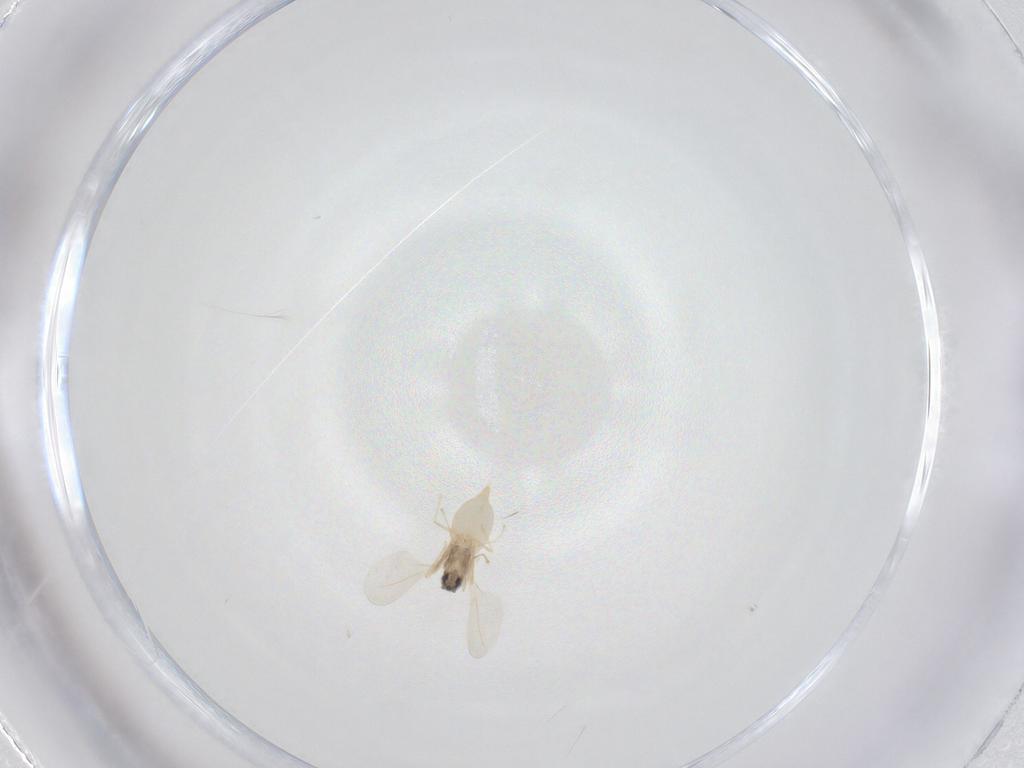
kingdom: Animalia
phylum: Arthropoda
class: Insecta
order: Diptera
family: Cecidomyiidae
